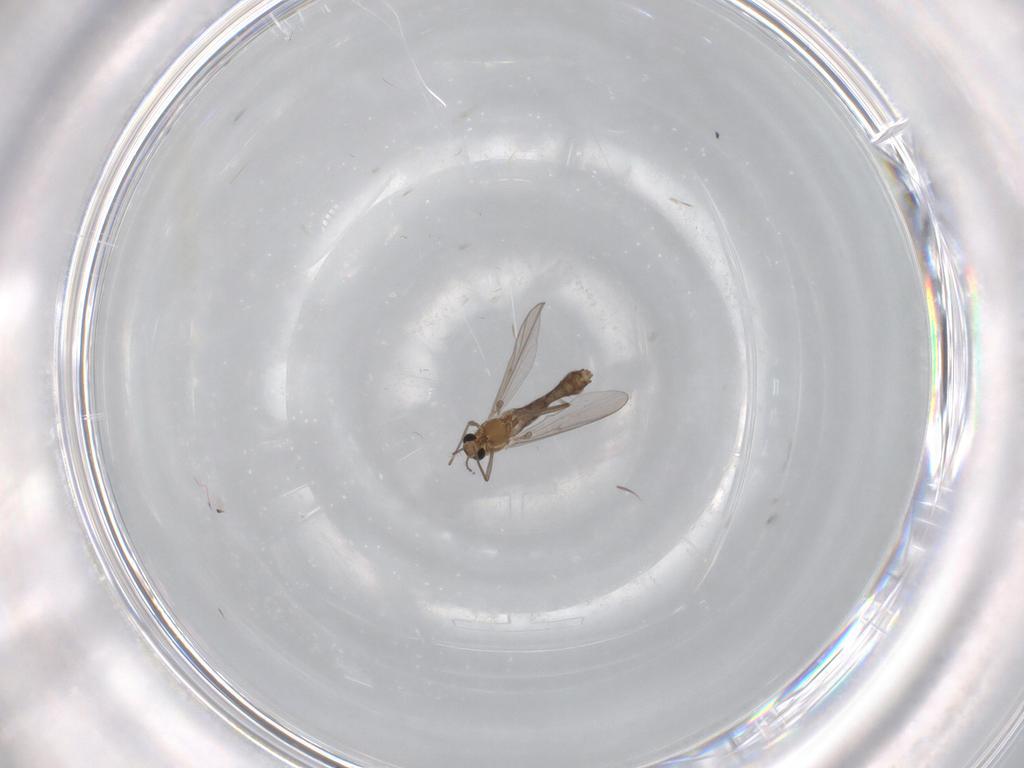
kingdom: Animalia
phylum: Arthropoda
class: Insecta
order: Diptera
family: Chironomidae
